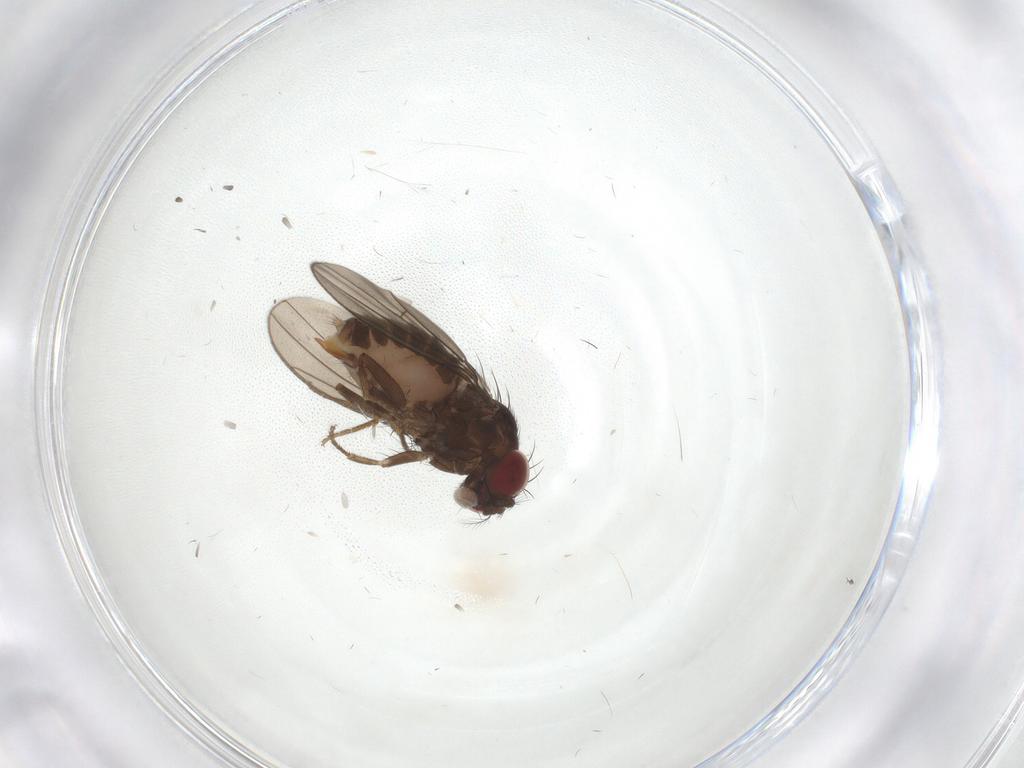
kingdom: Animalia
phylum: Arthropoda
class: Insecta
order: Diptera
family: Drosophilidae
